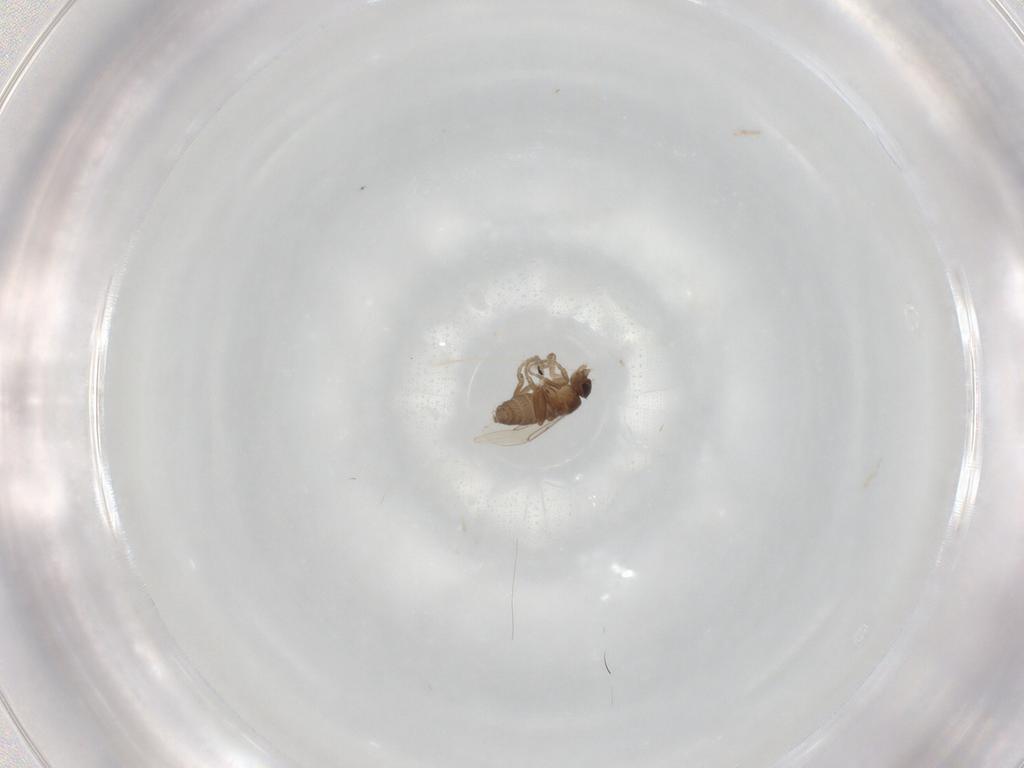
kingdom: Animalia
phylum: Arthropoda
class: Insecta
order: Diptera
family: Phoridae
